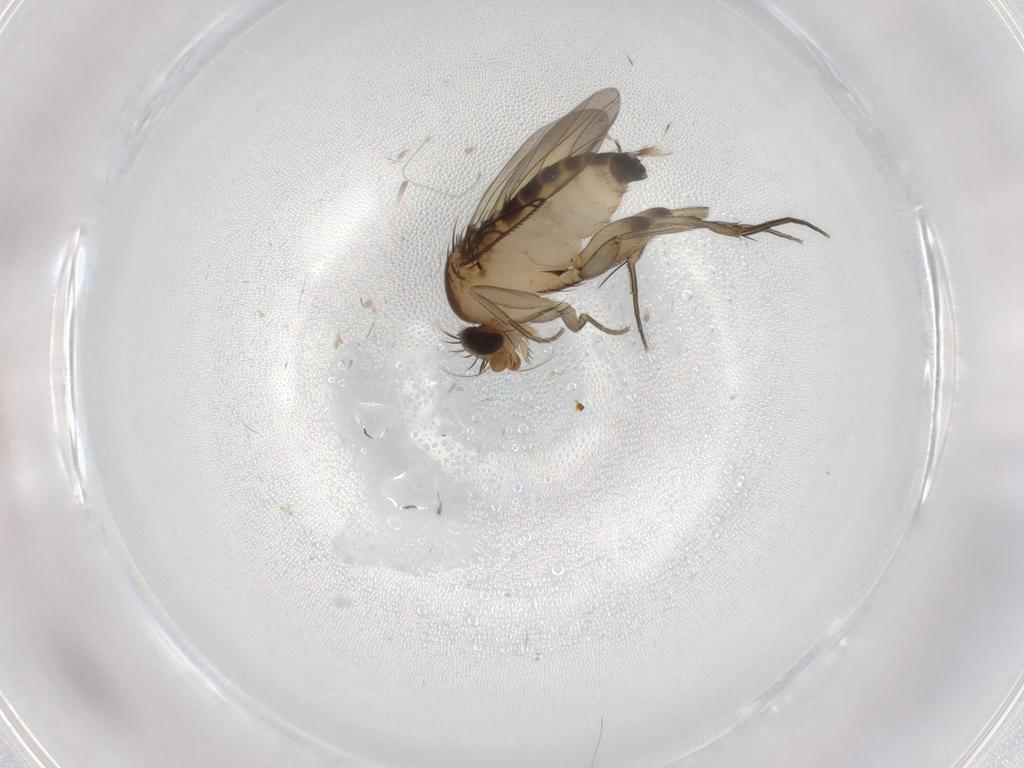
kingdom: Animalia
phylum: Arthropoda
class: Insecta
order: Diptera
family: Phoridae
